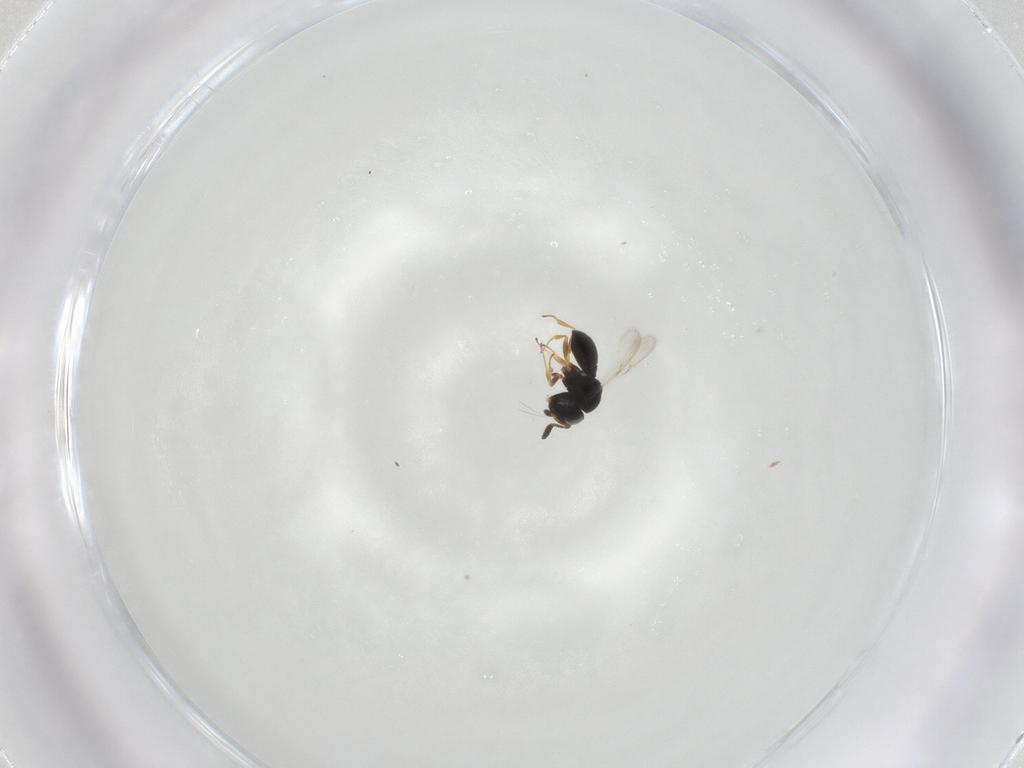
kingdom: Animalia
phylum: Arthropoda
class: Insecta
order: Hymenoptera
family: Scelionidae
